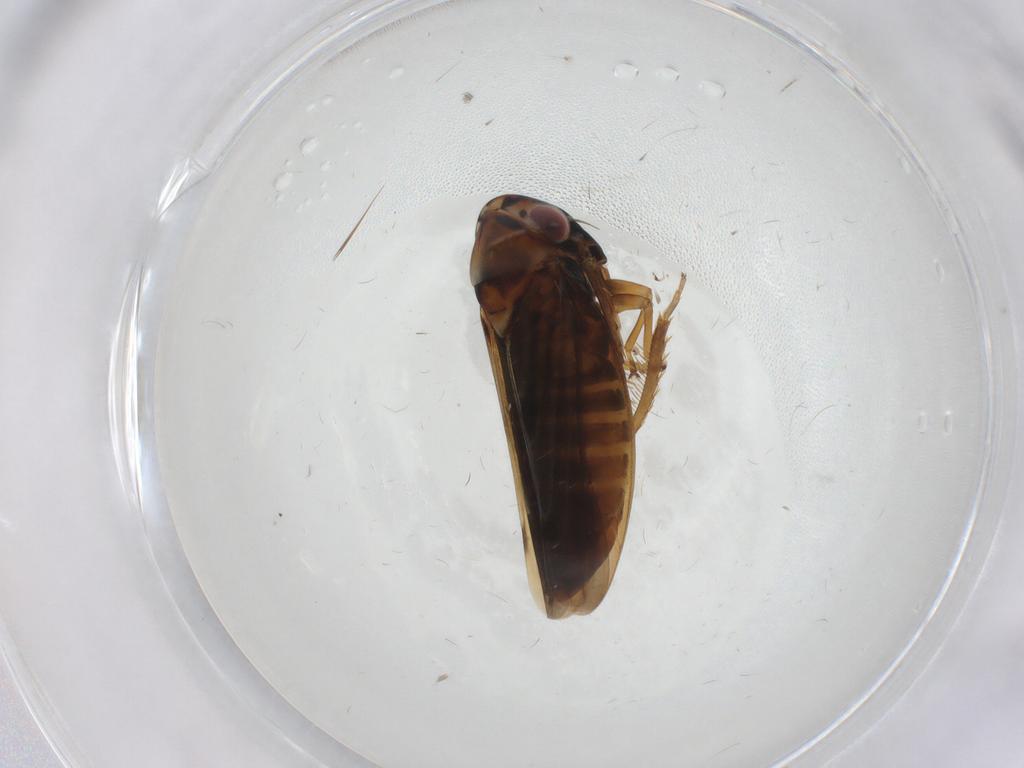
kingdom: Animalia
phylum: Arthropoda
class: Insecta
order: Hemiptera
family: Cicadellidae
